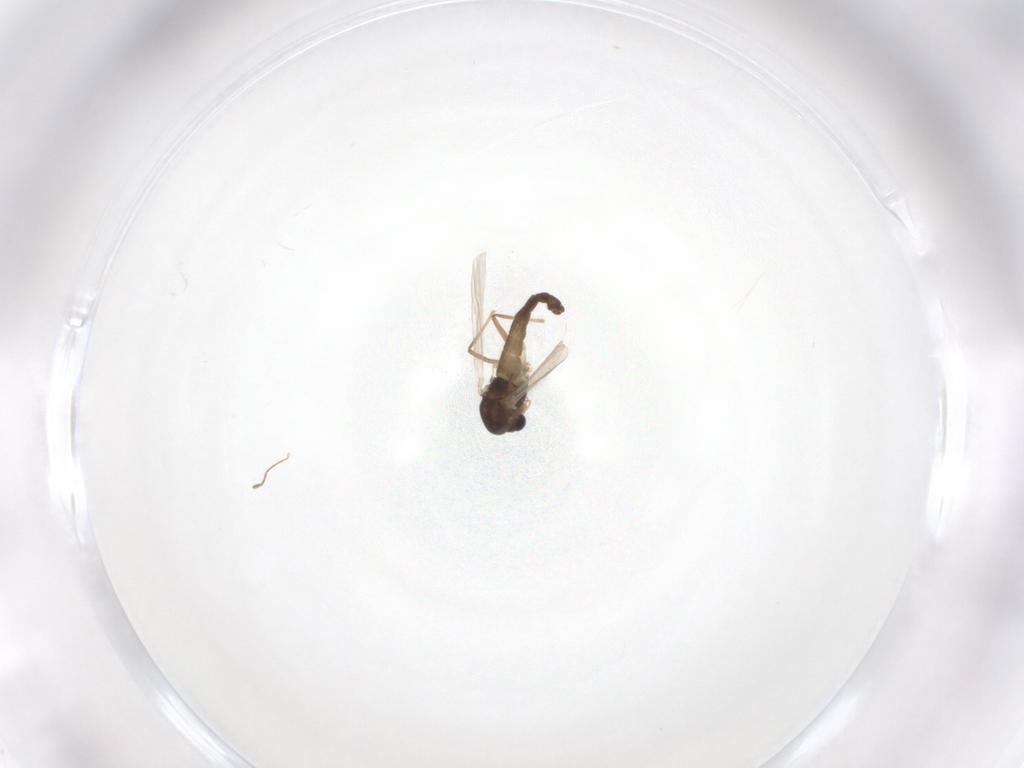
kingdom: Animalia
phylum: Arthropoda
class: Insecta
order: Diptera
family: Chironomidae
